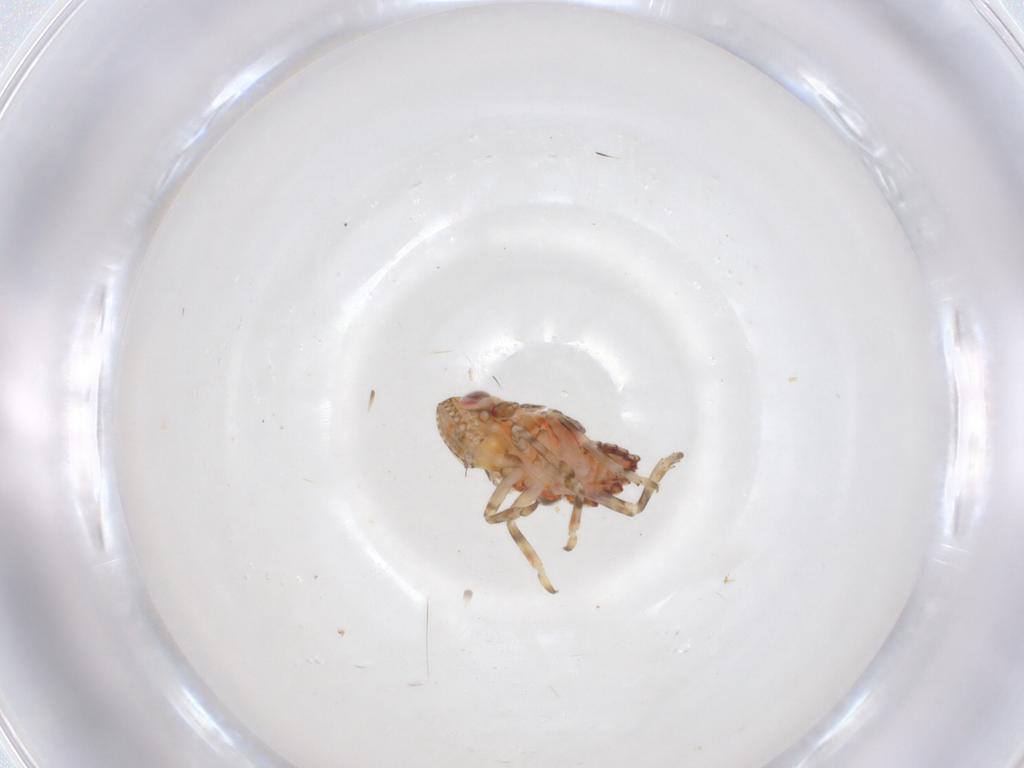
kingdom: Animalia
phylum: Arthropoda
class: Insecta
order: Hemiptera
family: Tropiduchidae
